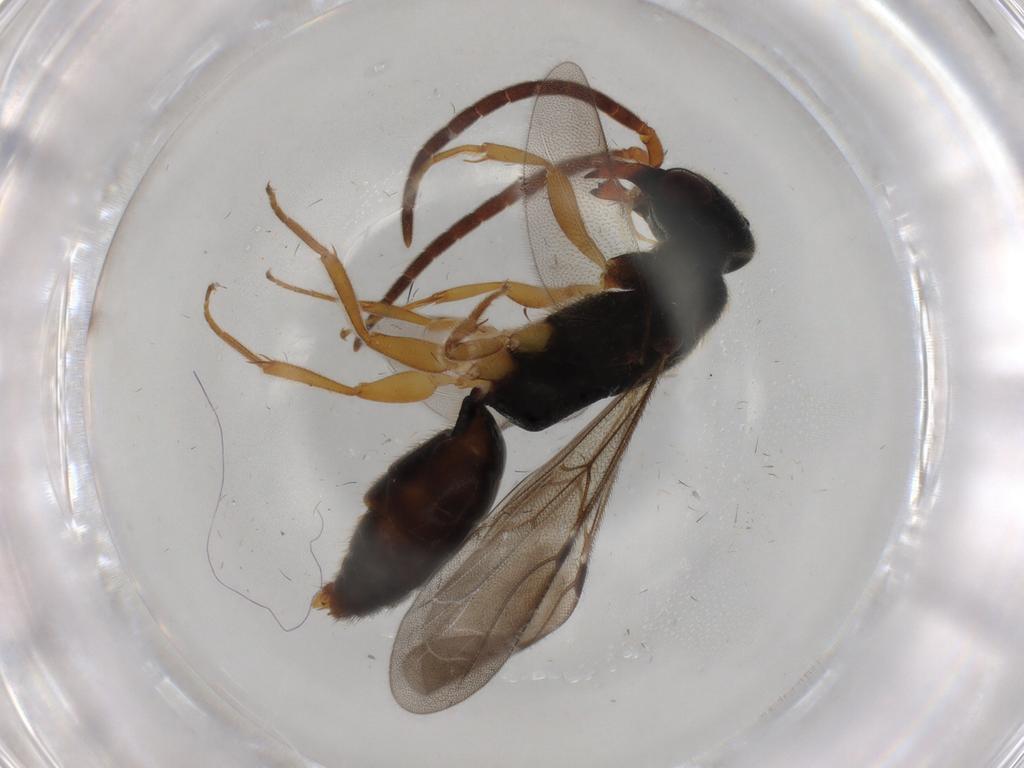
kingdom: Animalia
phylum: Arthropoda
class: Insecta
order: Hymenoptera
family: Bethylidae
